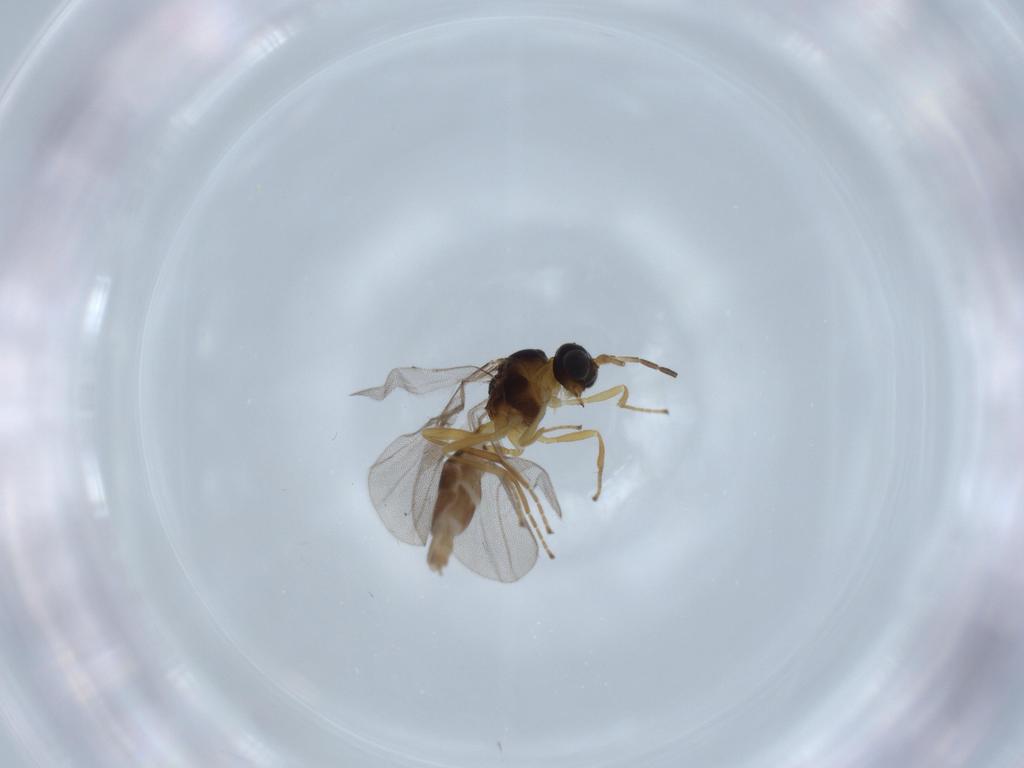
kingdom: Animalia
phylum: Arthropoda
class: Insecta
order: Hymenoptera
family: Braconidae
